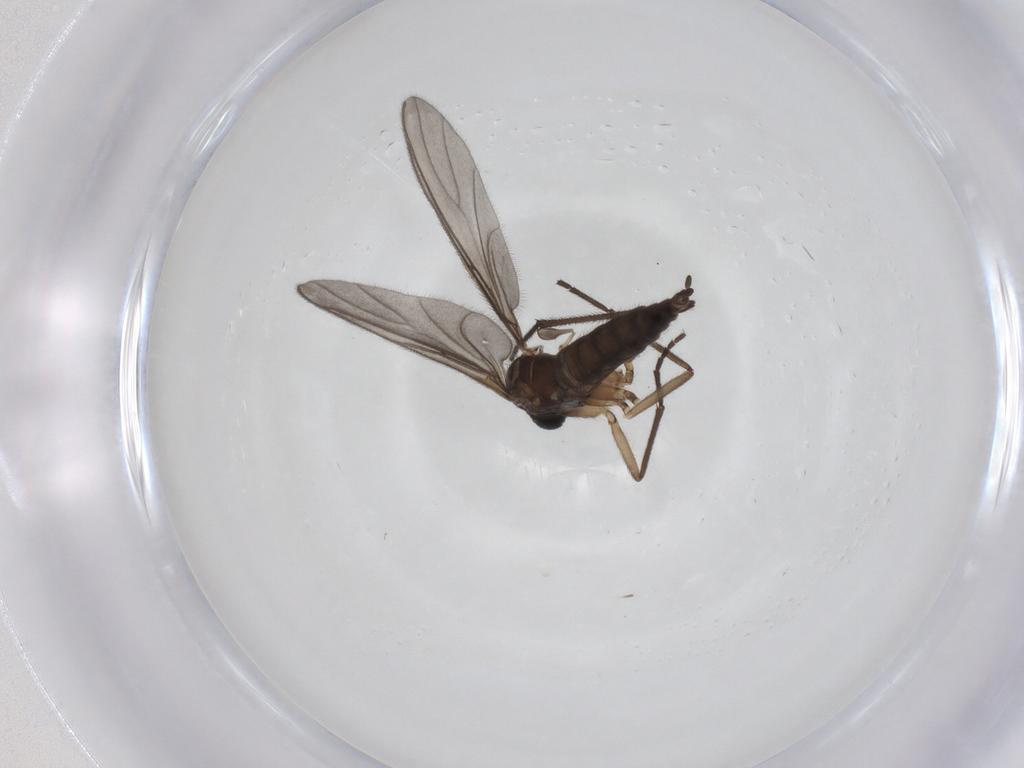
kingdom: Animalia
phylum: Arthropoda
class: Insecta
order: Diptera
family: Sciaridae
